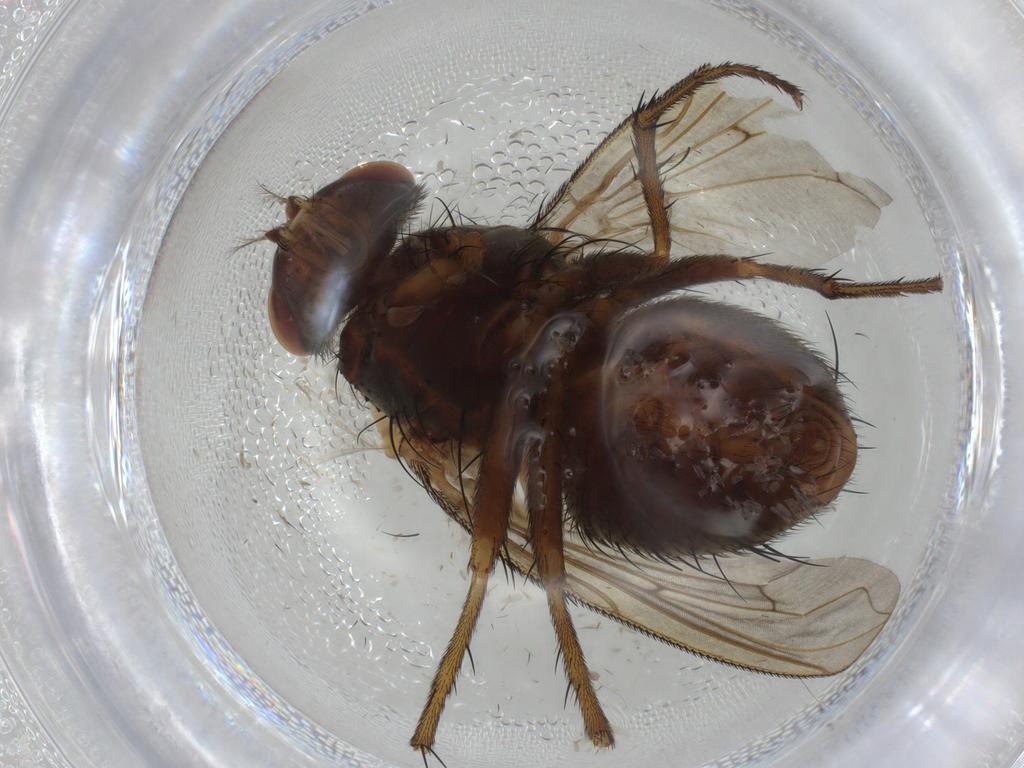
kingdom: Animalia
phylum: Arthropoda
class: Insecta
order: Diptera
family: Tachinidae
